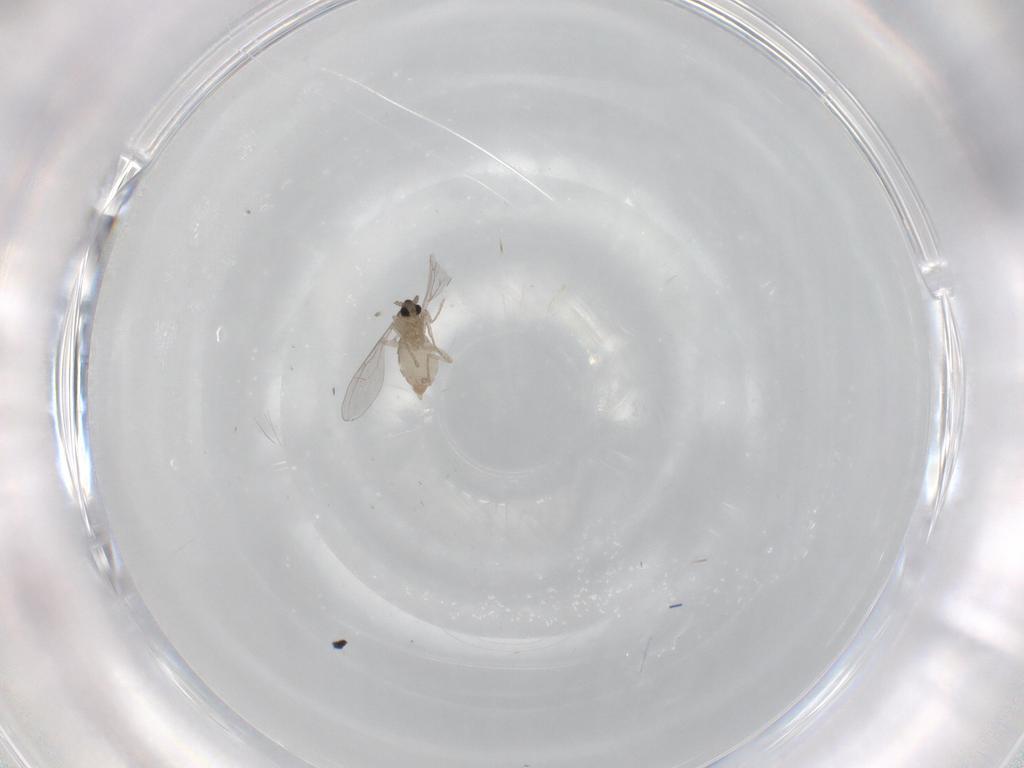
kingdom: Animalia
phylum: Arthropoda
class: Insecta
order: Diptera
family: Cecidomyiidae
